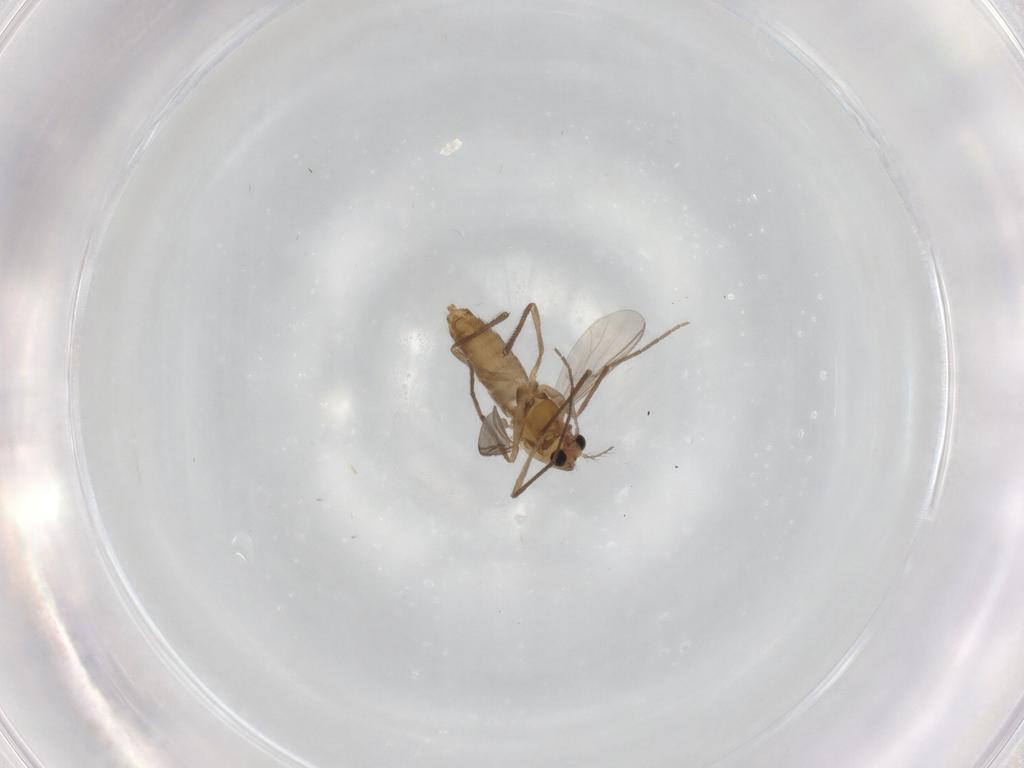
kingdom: Animalia
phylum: Arthropoda
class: Insecta
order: Diptera
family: Chironomidae
